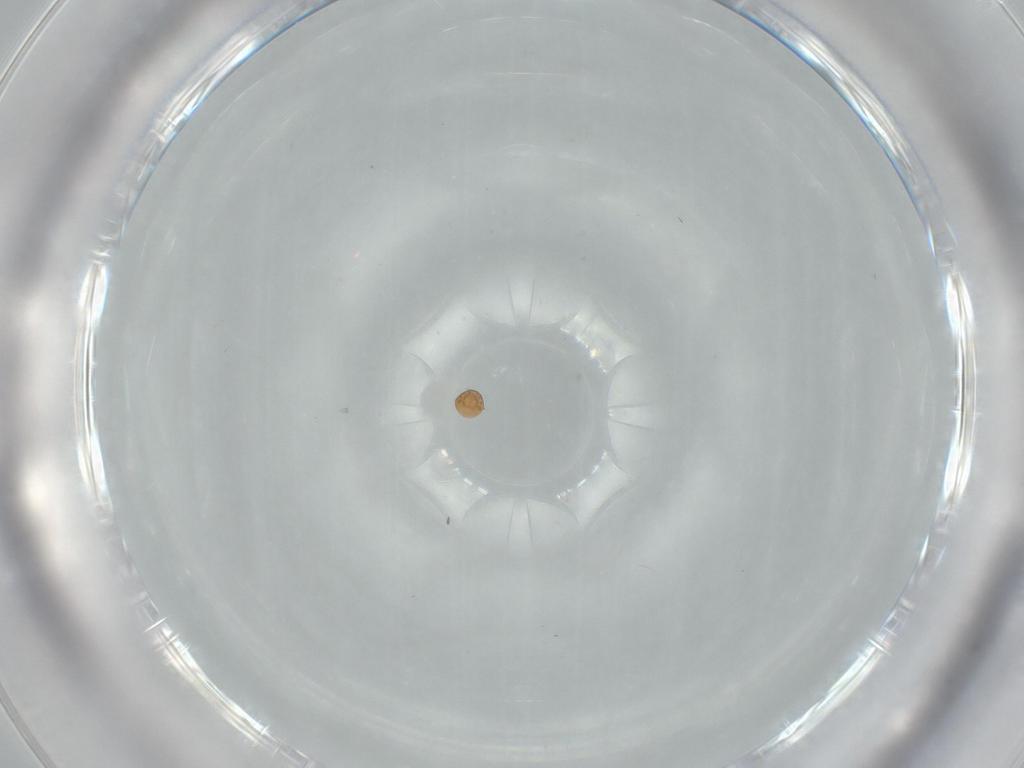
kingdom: Animalia
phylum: Arthropoda
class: Arachnida
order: Trombidiformes
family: Scutacaridae
